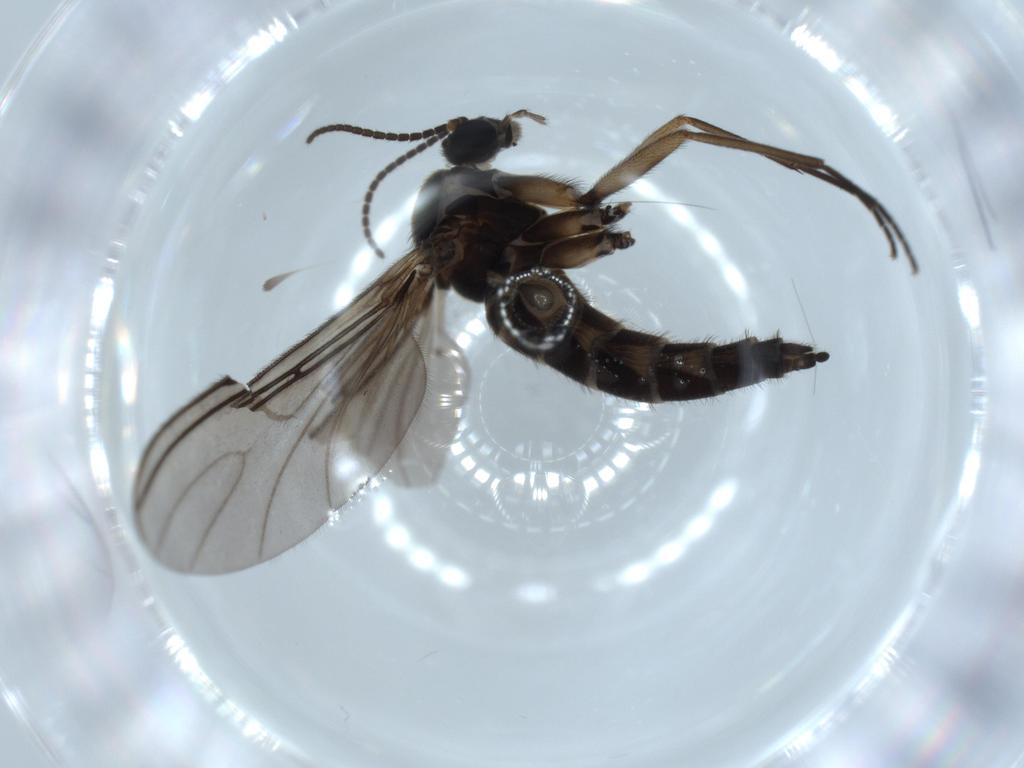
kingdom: Animalia
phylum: Arthropoda
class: Insecta
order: Diptera
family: Sciaridae
